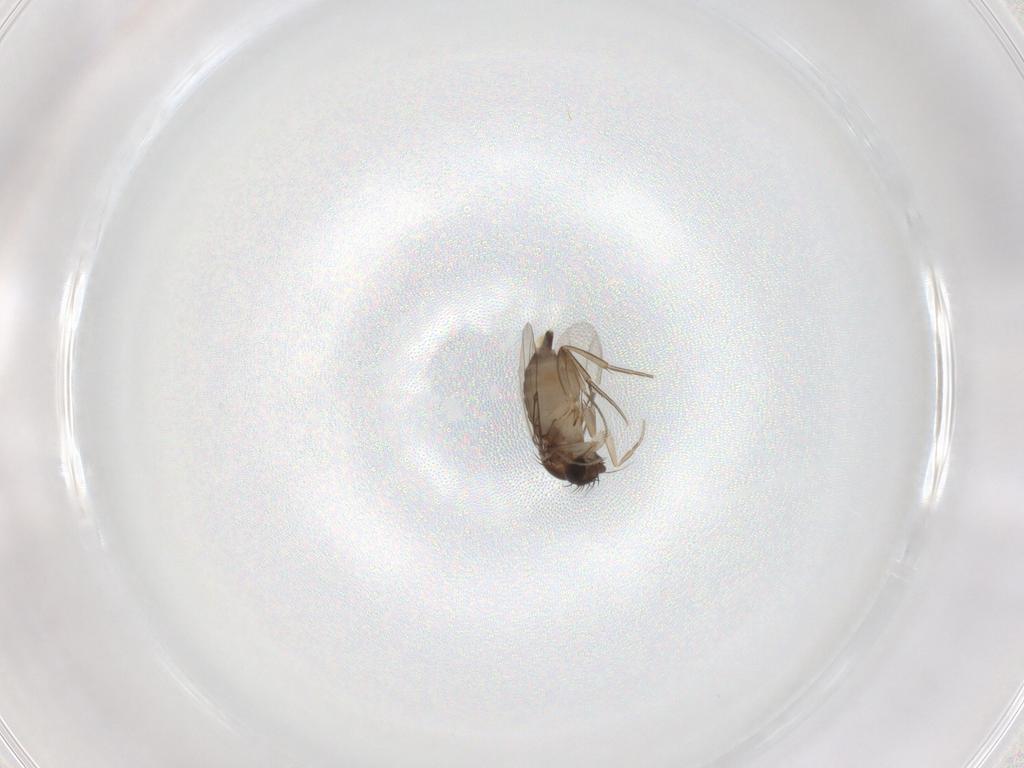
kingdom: Animalia
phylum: Arthropoda
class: Insecta
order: Diptera
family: Phoridae
